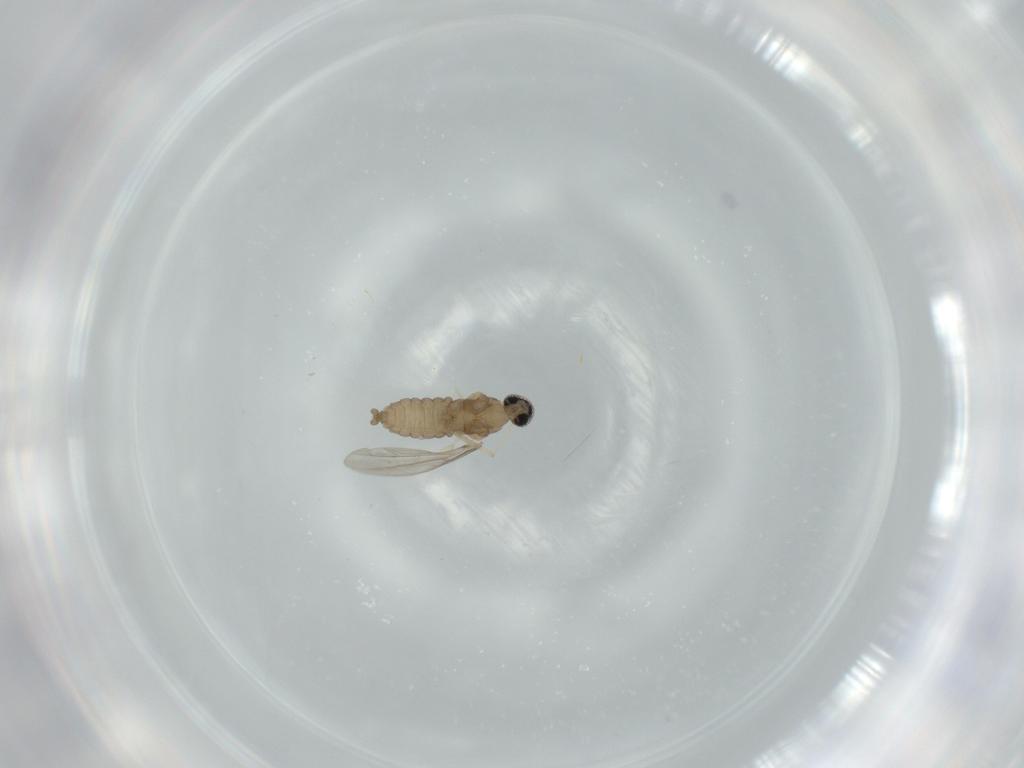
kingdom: Animalia
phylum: Arthropoda
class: Insecta
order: Diptera
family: Cecidomyiidae
